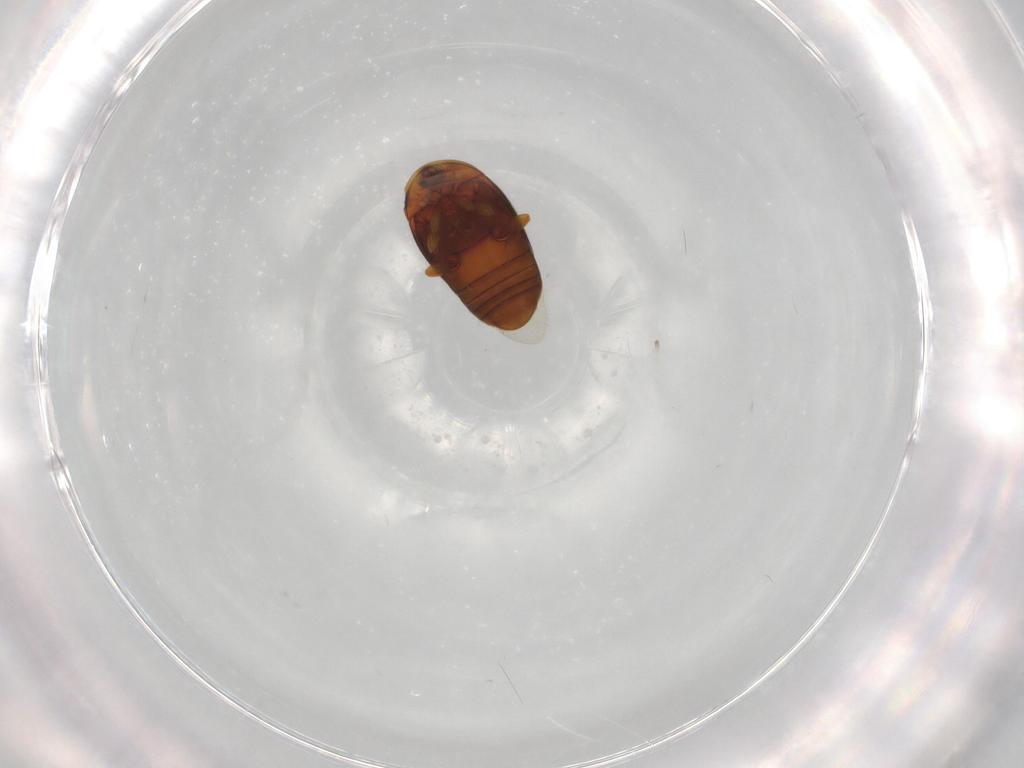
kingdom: Animalia
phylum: Arthropoda
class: Insecta
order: Coleoptera
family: Corylophidae
